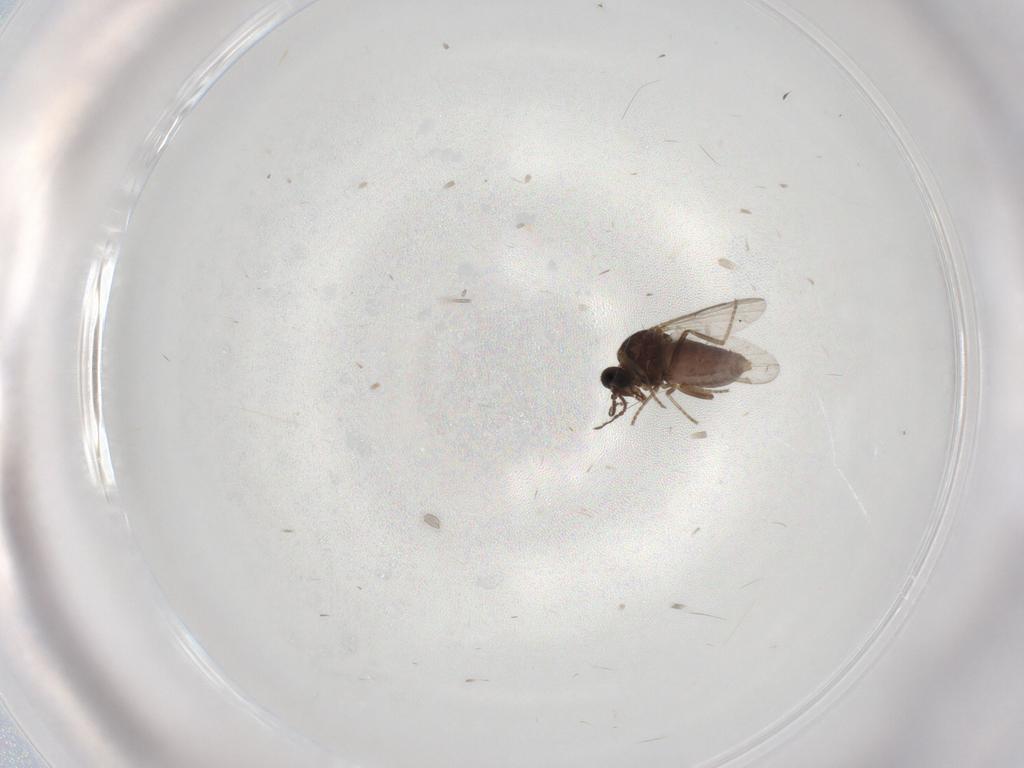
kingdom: Animalia
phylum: Arthropoda
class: Insecta
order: Diptera
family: Ceratopogonidae
